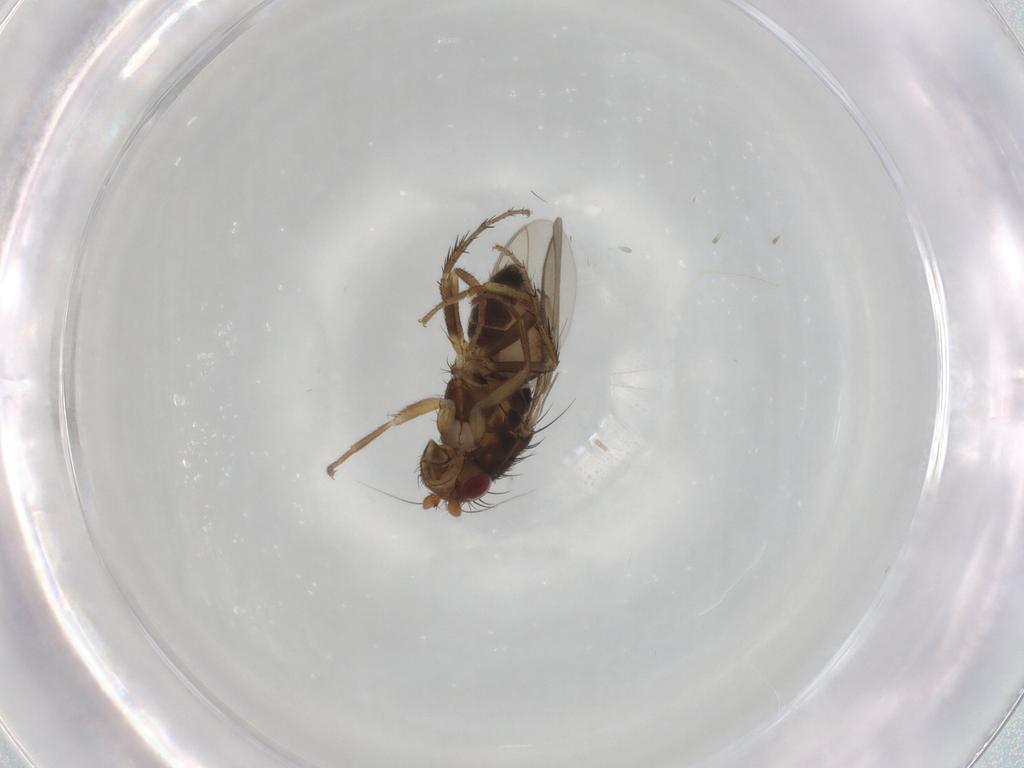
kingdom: Animalia
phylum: Arthropoda
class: Insecta
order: Diptera
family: Sphaeroceridae
